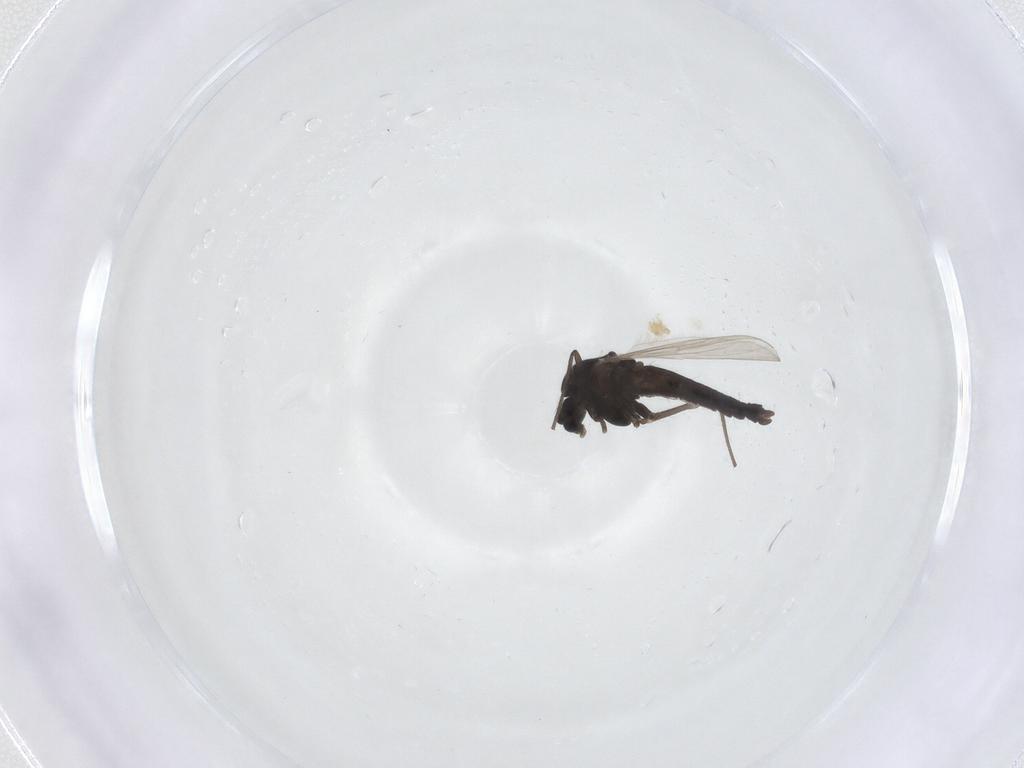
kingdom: Animalia
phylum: Arthropoda
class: Insecta
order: Diptera
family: Chironomidae
